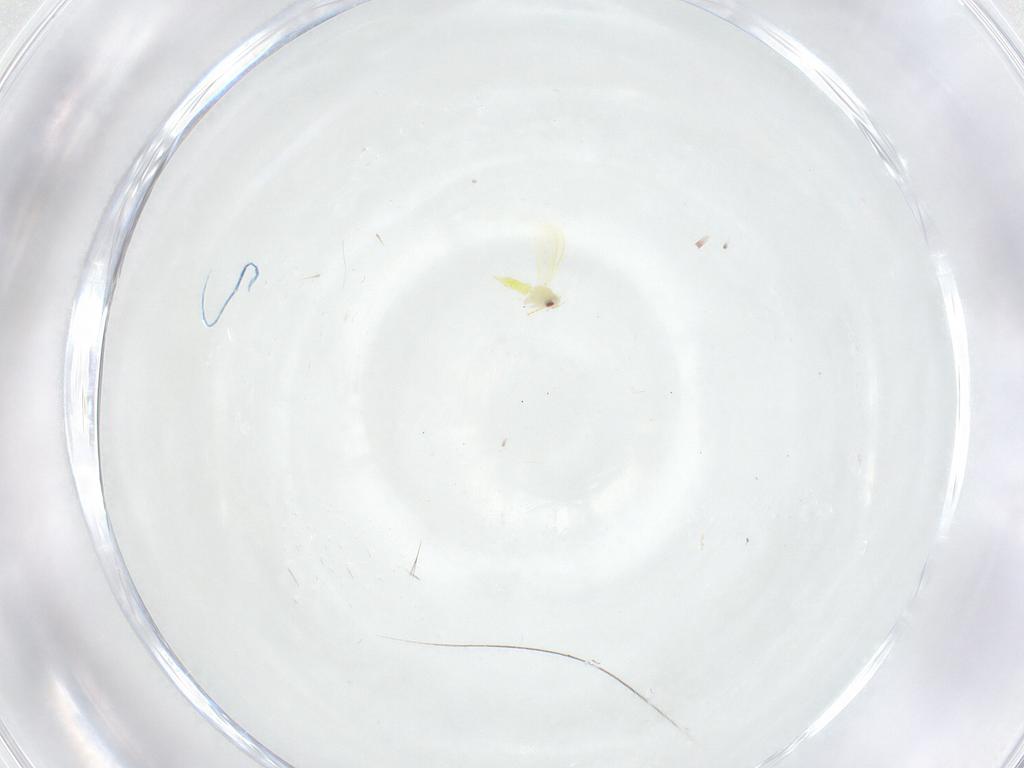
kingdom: Animalia
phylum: Arthropoda
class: Insecta
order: Hemiptera
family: Aleyrodidae
